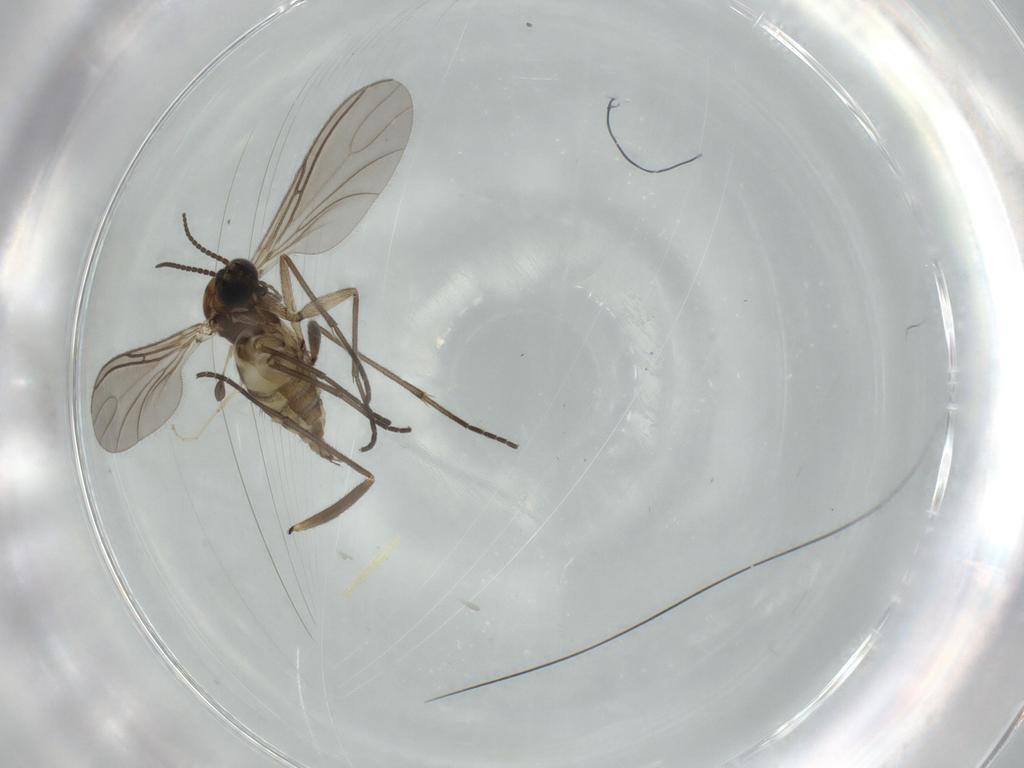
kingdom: Animalia
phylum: Arthropoda
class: Insecta
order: Diptera
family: Sciaridae
